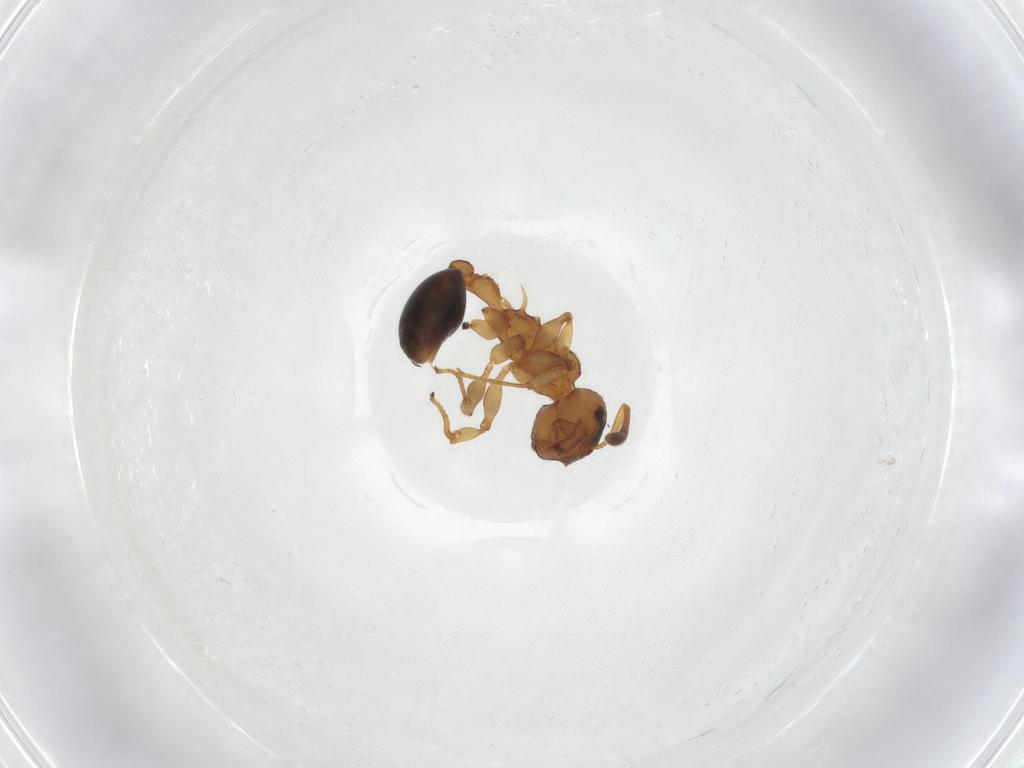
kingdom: Animalia
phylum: Arthropoda
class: Insecta
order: Hymenoptera
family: Formicidae
